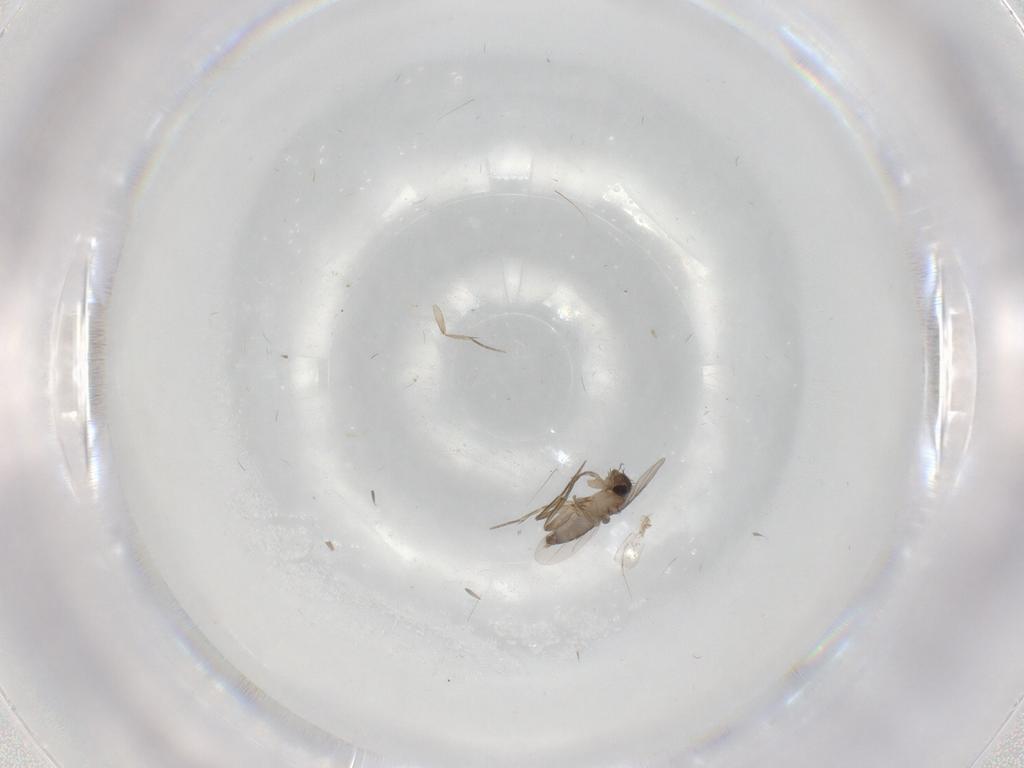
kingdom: Animalia
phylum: Arthropoda
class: Insecta
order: Diptera
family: Phoridae
